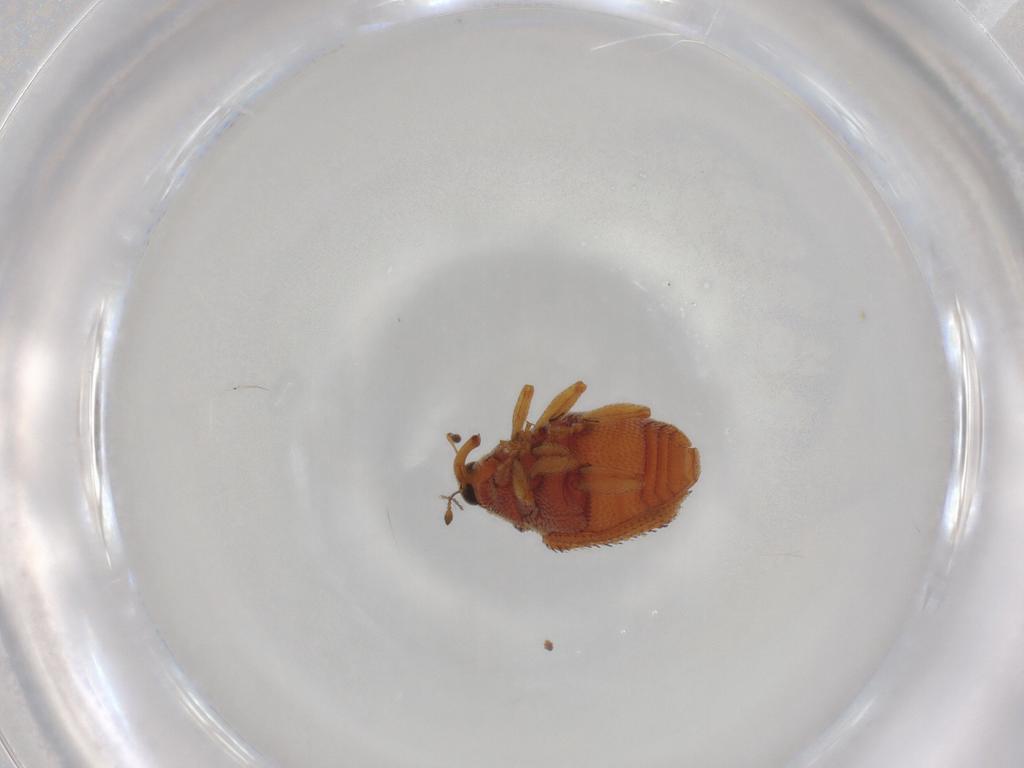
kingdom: Animalia
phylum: Arthropoda
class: Insecta
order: Coleoptera
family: Curculionidae
